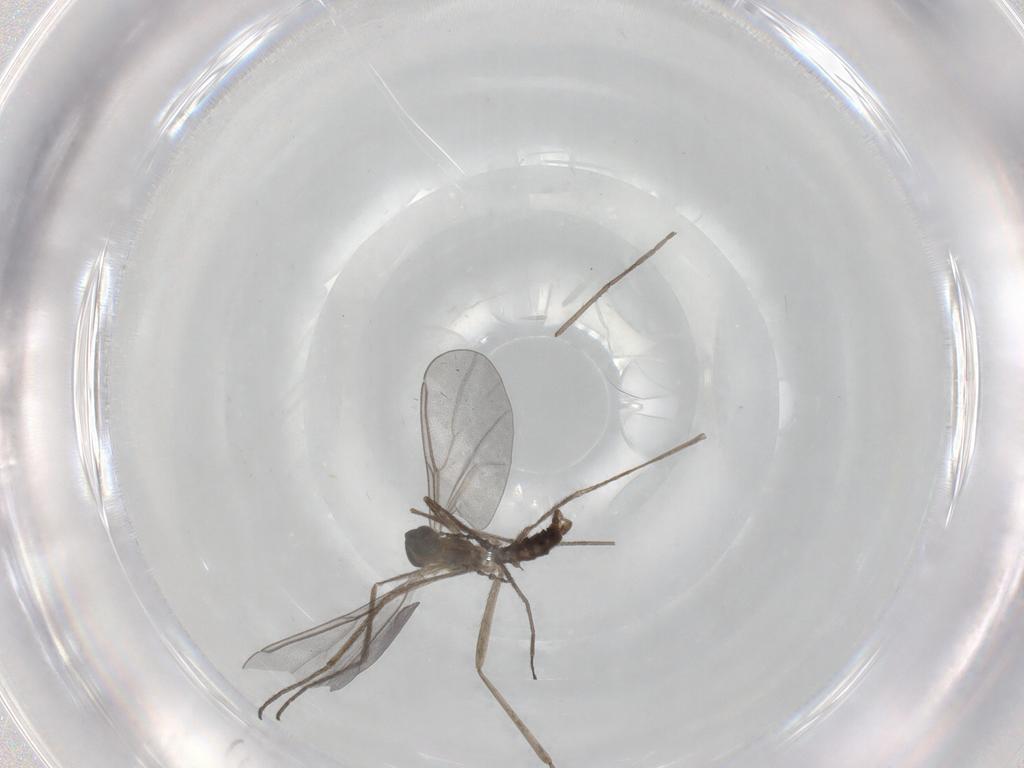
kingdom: Animalia
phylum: Arthropoda
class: Insecta
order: Diptera
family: Cecidomyiidae
